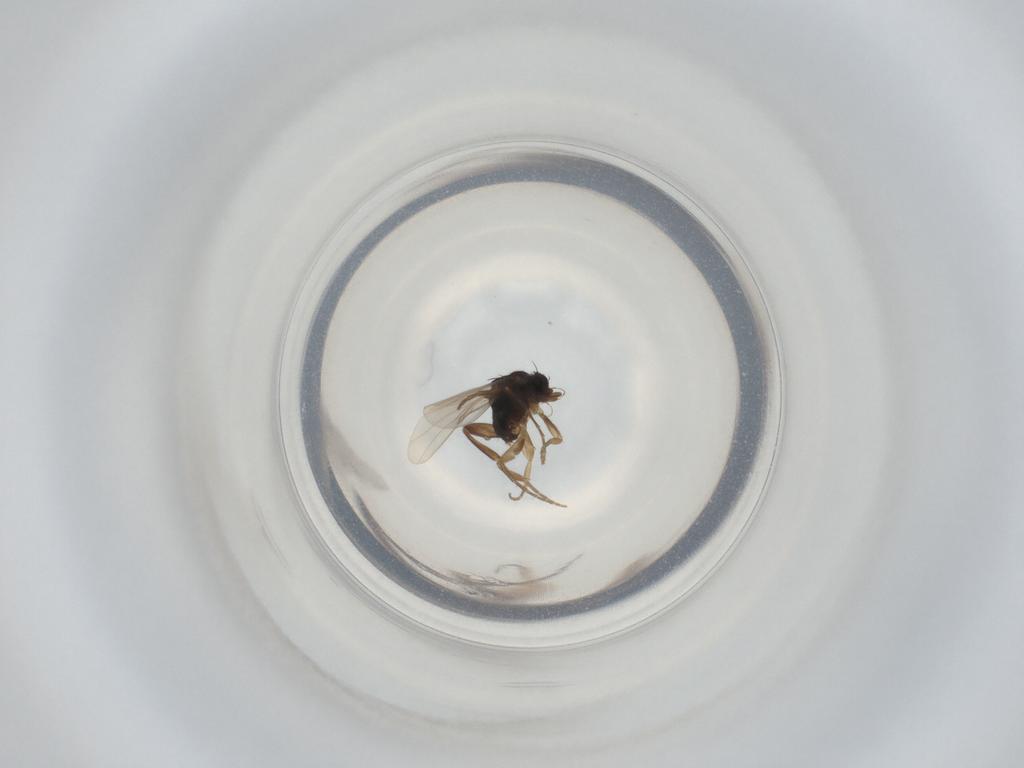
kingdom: Animalia
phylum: Arthropoda
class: Insecta
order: Diptera
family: Phoridae
